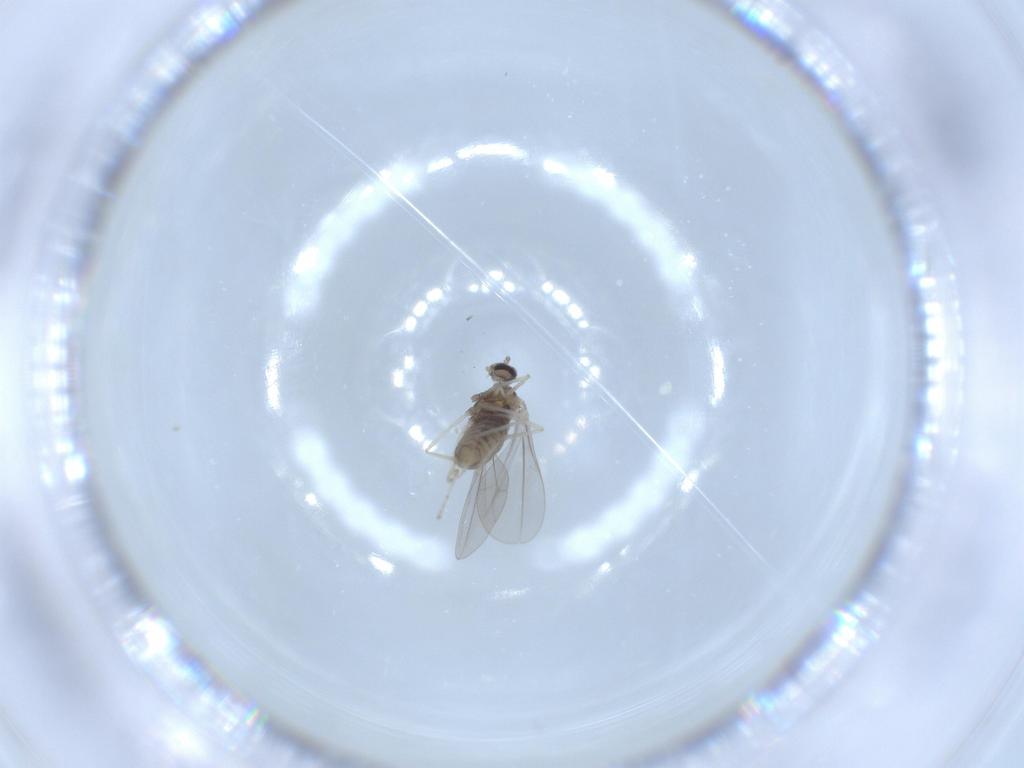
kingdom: Animalia
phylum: Arthropoda
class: Insecta
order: Diptera
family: Cecidomyiidae
